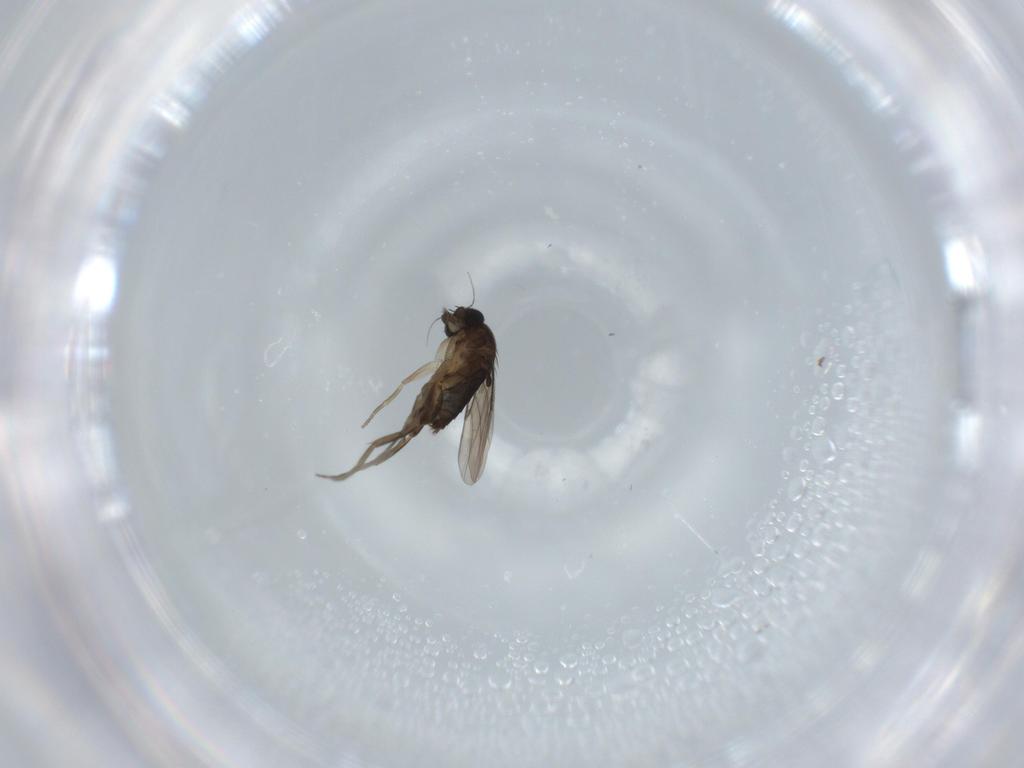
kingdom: Animalia
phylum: Arthropoda
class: Insecta
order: Diptera
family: Phoridae
